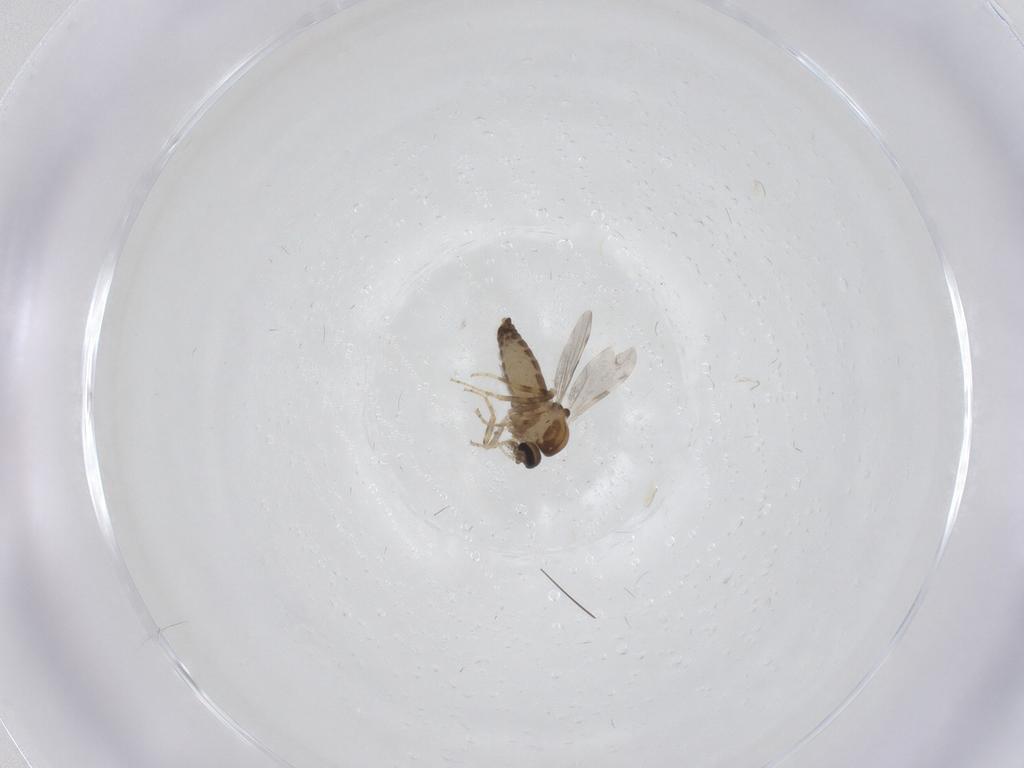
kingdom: Animalia
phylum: Arthropoda
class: Insecta
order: Diptera
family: Ceratopogonidae
